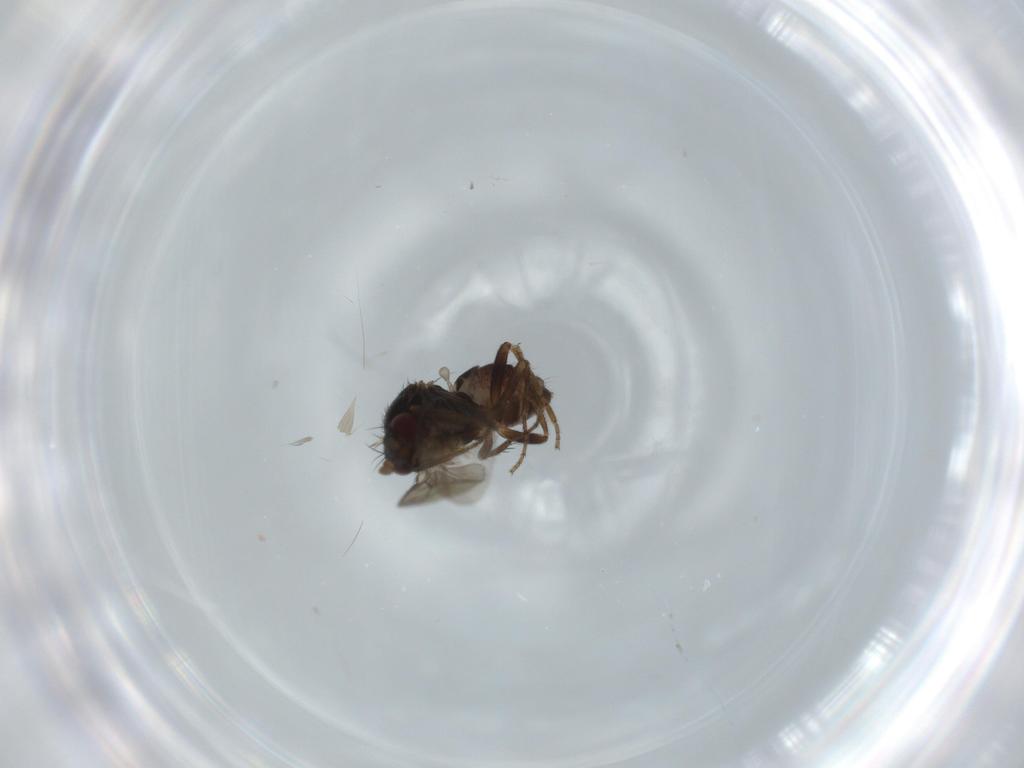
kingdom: Animalia
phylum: Arthropoda
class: Insecta
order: Diptera
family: Sphaeroceridae
